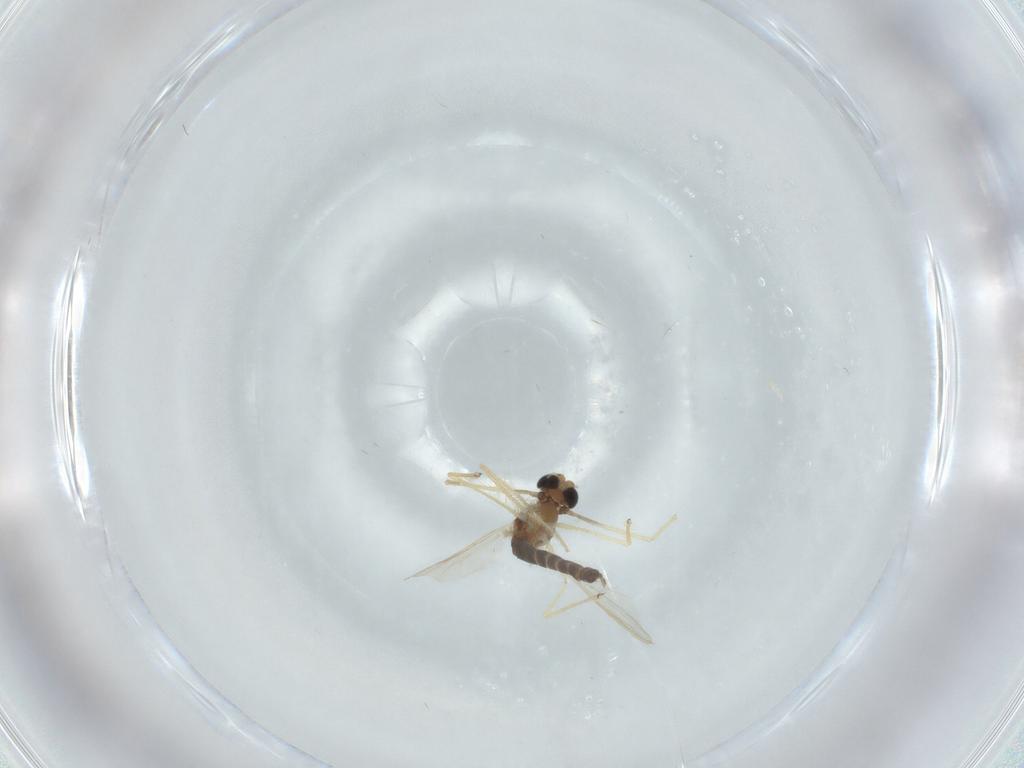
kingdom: Animalia
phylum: Arthropoda
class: Insecta
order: Diptera
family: Chironomidae
